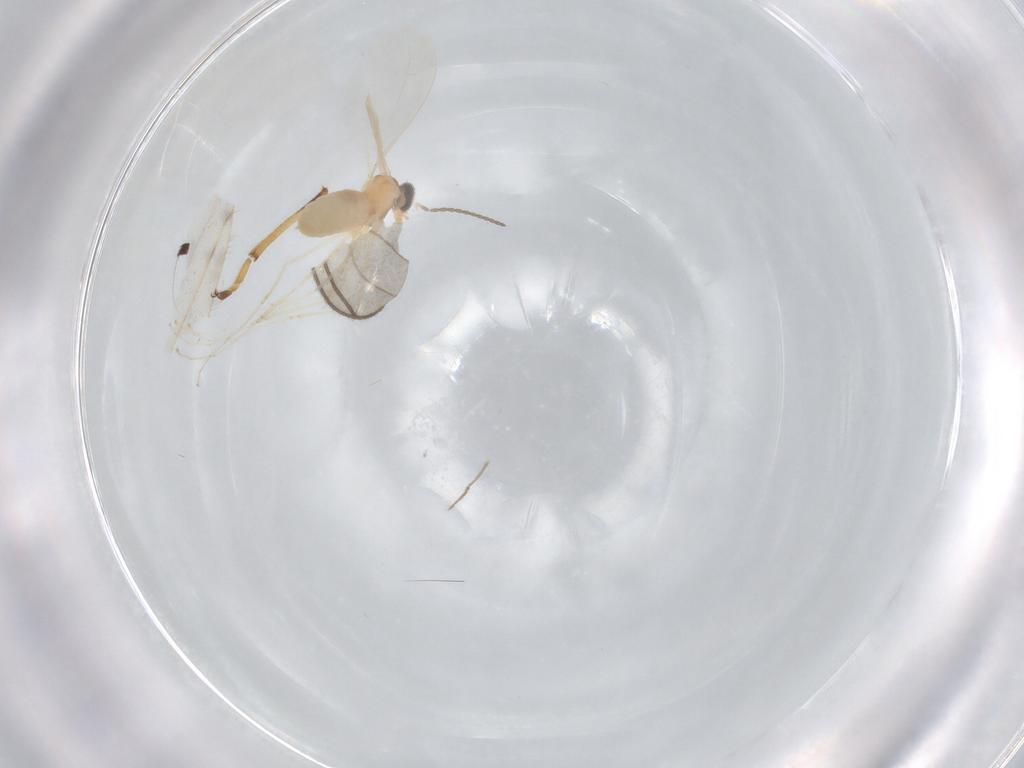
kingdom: Animalia
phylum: Arthropoda
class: Insecta
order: Diptera
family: Cecidomyiidae
